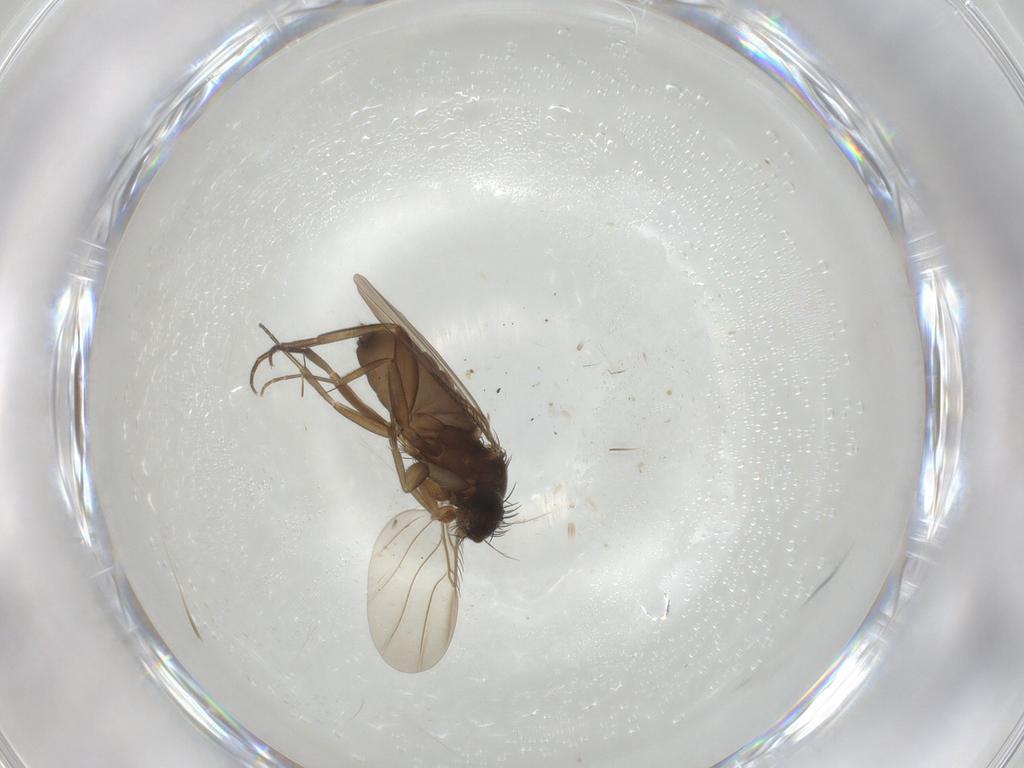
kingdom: Animalia
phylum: Arthropoda
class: Insecta
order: Diptera
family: Phoridae
